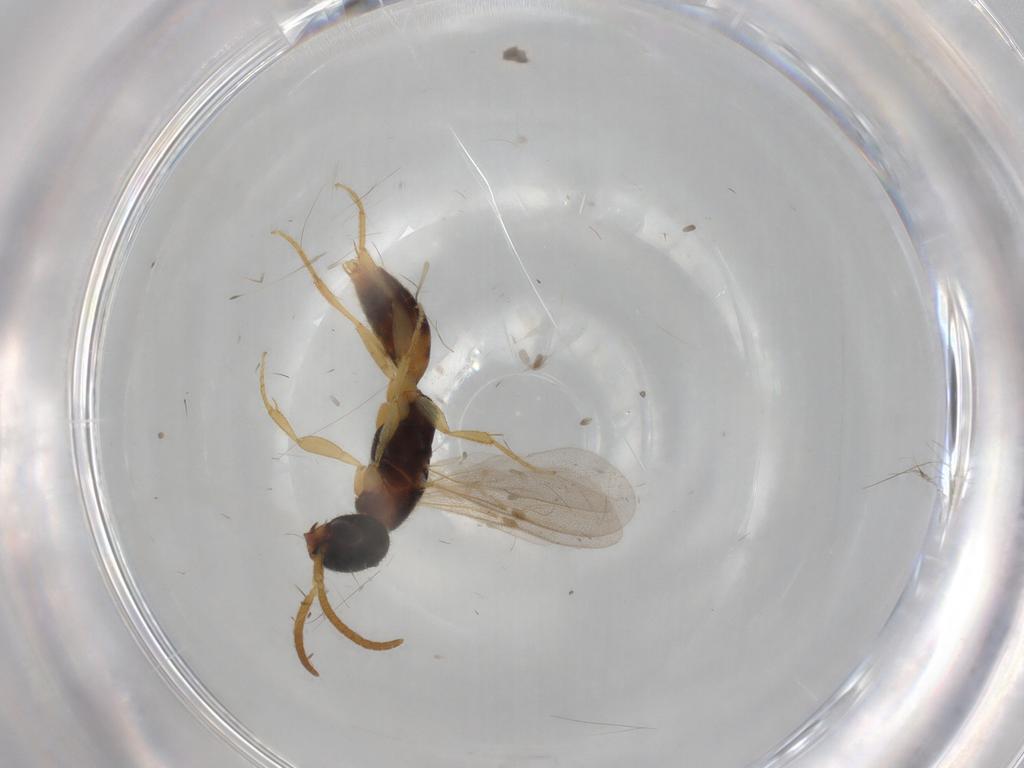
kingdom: Animalia
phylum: Arthropoda
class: Insecta
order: Hymenoptera
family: Bethylidae
